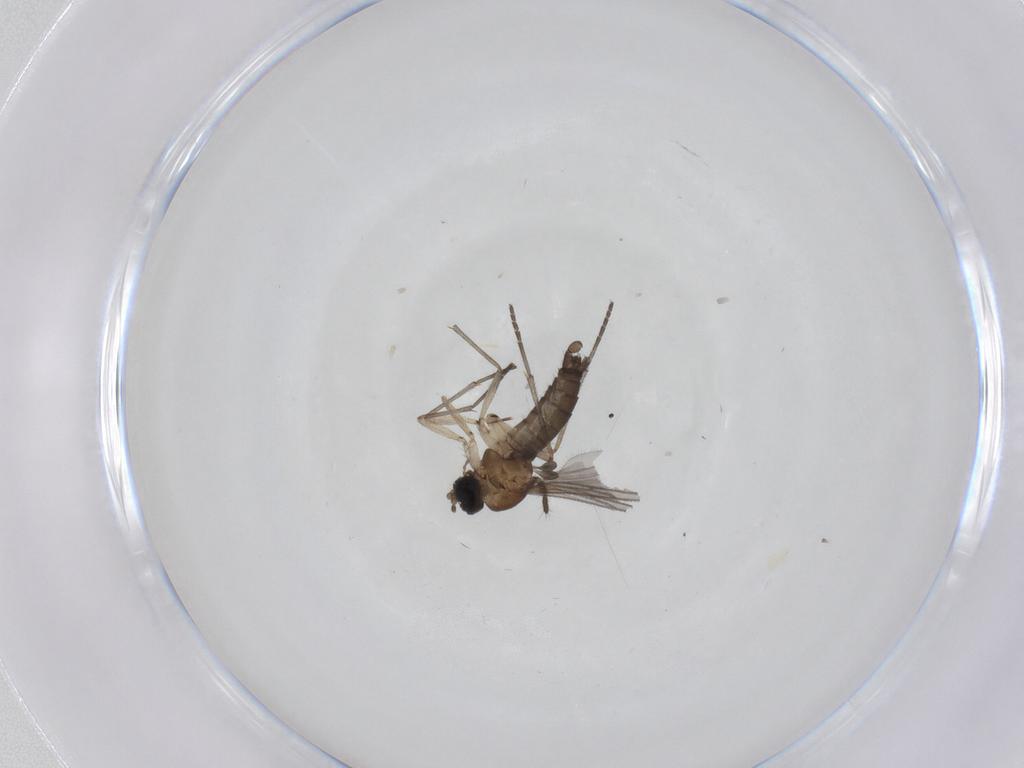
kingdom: Animalia
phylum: Arthropoda
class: Insecta
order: Diptera
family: Sciaridae
